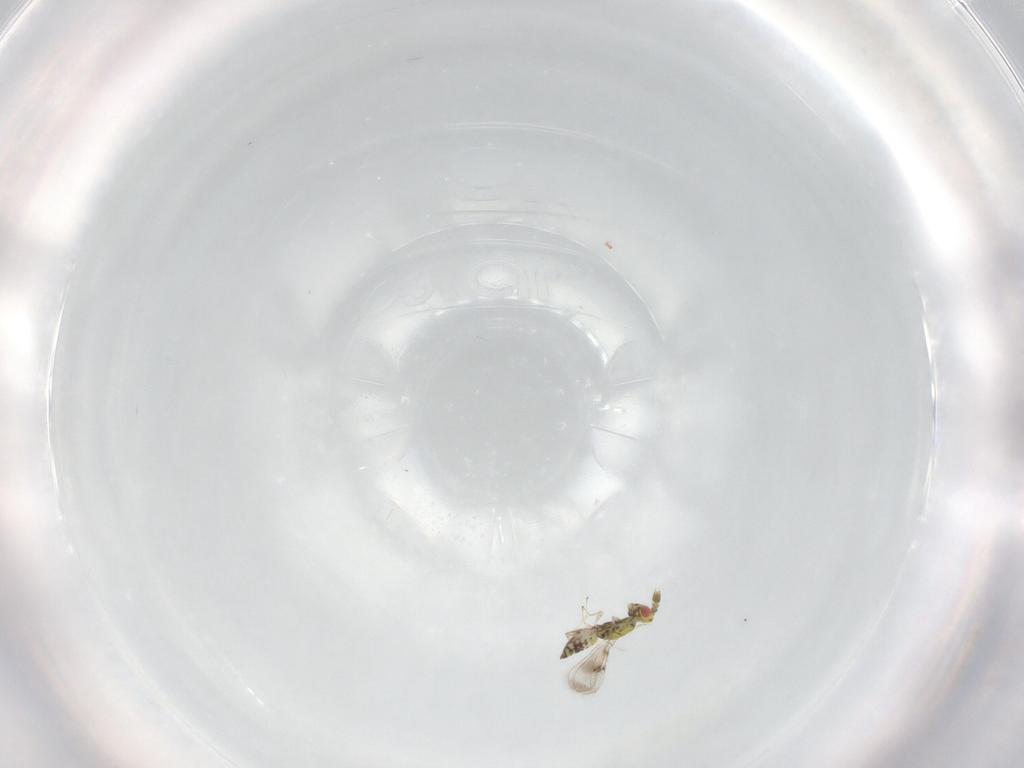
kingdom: Animalia
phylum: Arthropoda
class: Insecta
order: Hymenoptera
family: Eulophidae
